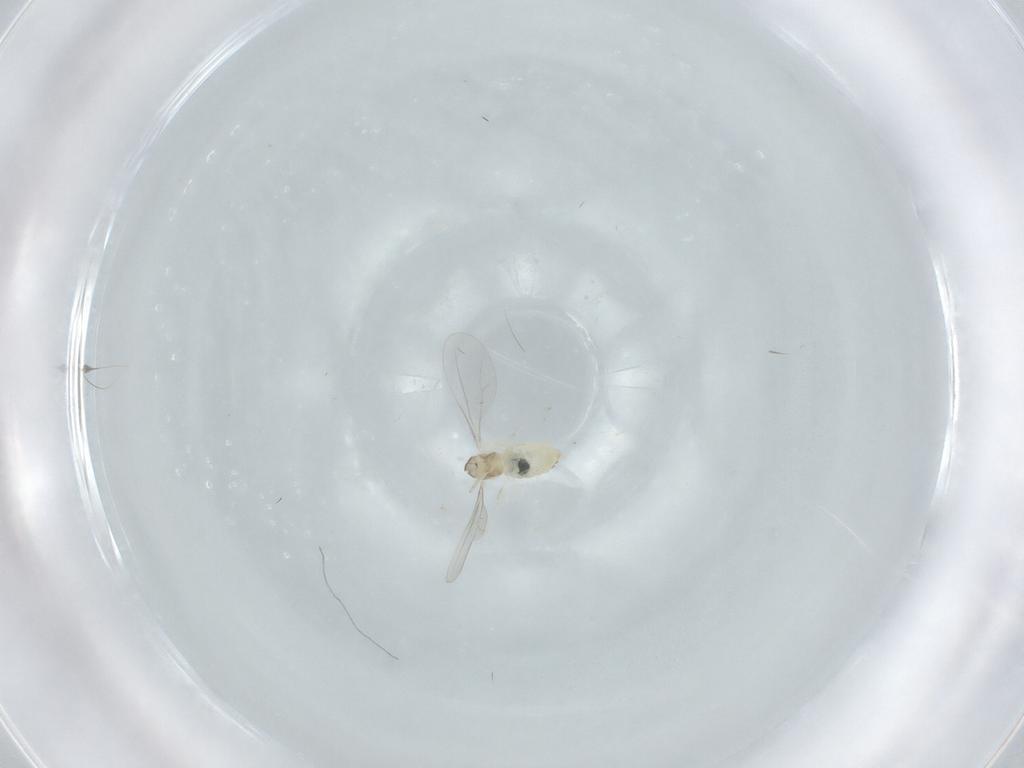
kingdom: Animalia
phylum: Arthropoda
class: Insecta
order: Diptera
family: Cecidomyiidae
